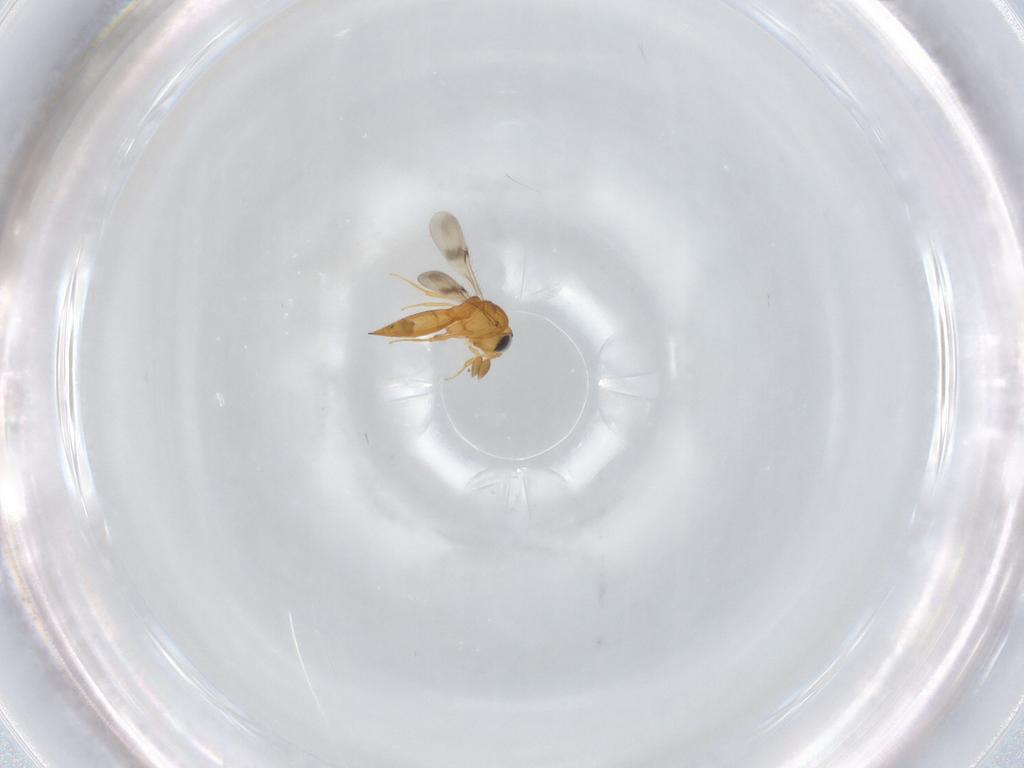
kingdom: Animalia
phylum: Arthropoda
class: Insecta
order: Hymenoptera
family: Scelionidae
